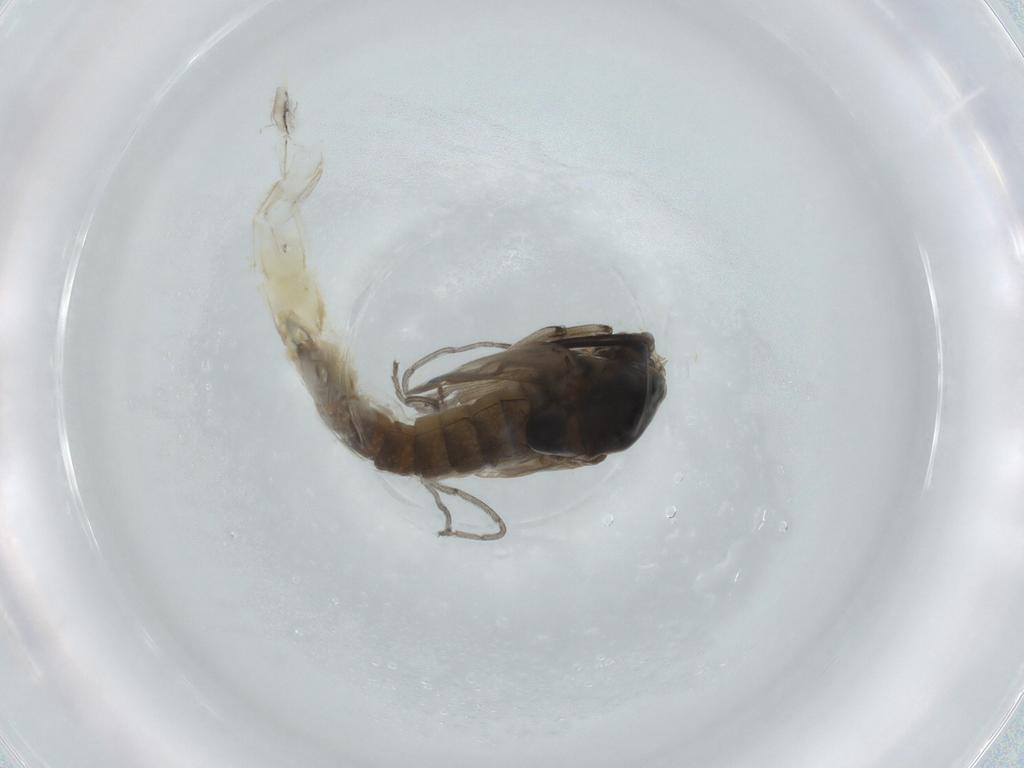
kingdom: Animalia
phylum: Arthropoda
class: Insecta
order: Diptera
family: Chironomidae
